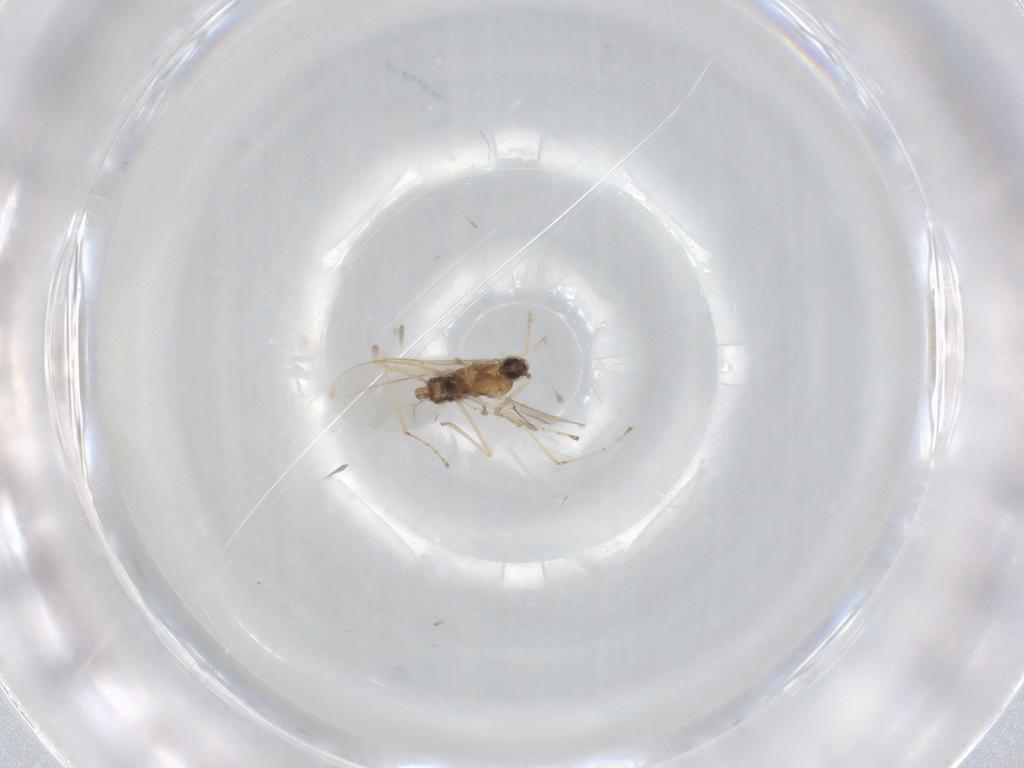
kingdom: Animalia
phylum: Arthropoda
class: Insecta
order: Diptera
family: Cecidomyiidae
